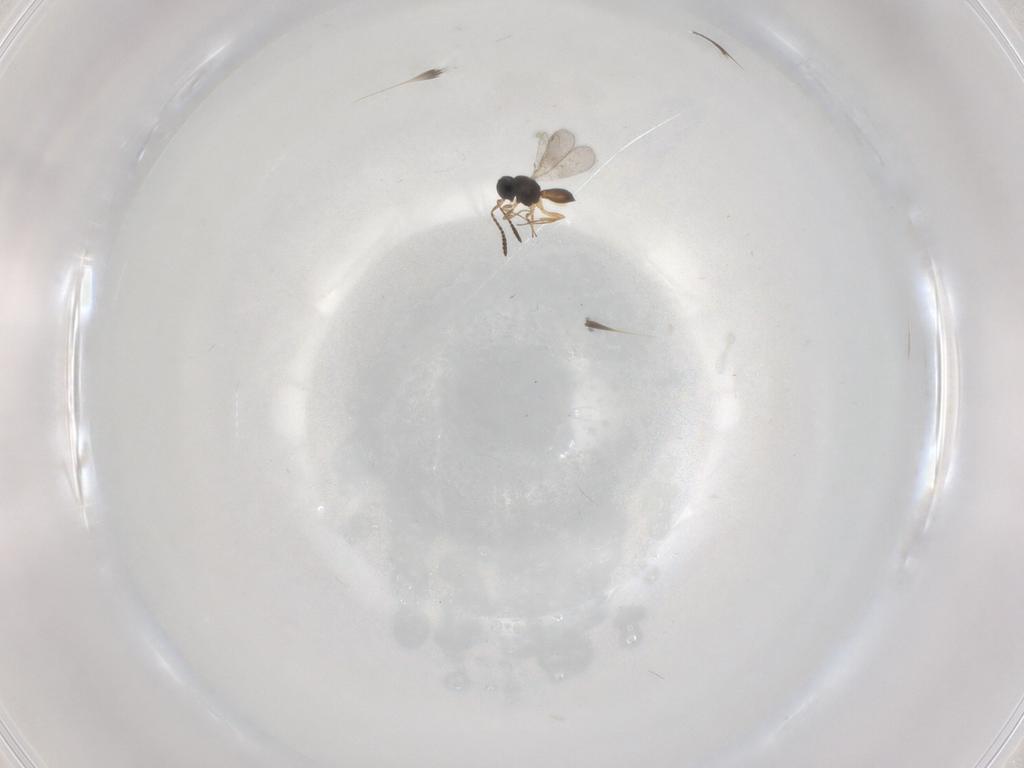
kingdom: Animalia
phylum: Arthropoda
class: Insecta
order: Hymenoptera
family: Scelionidae
